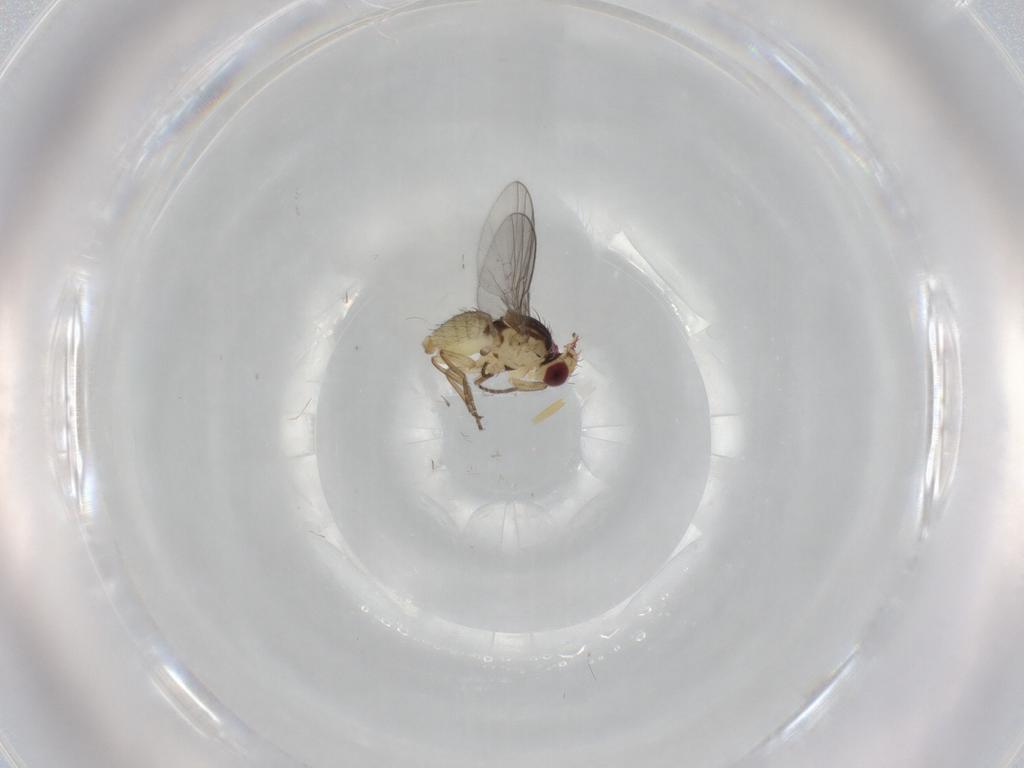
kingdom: Animalia
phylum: Arthropoda
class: Insecta
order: Diptera
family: Agromyzidae
